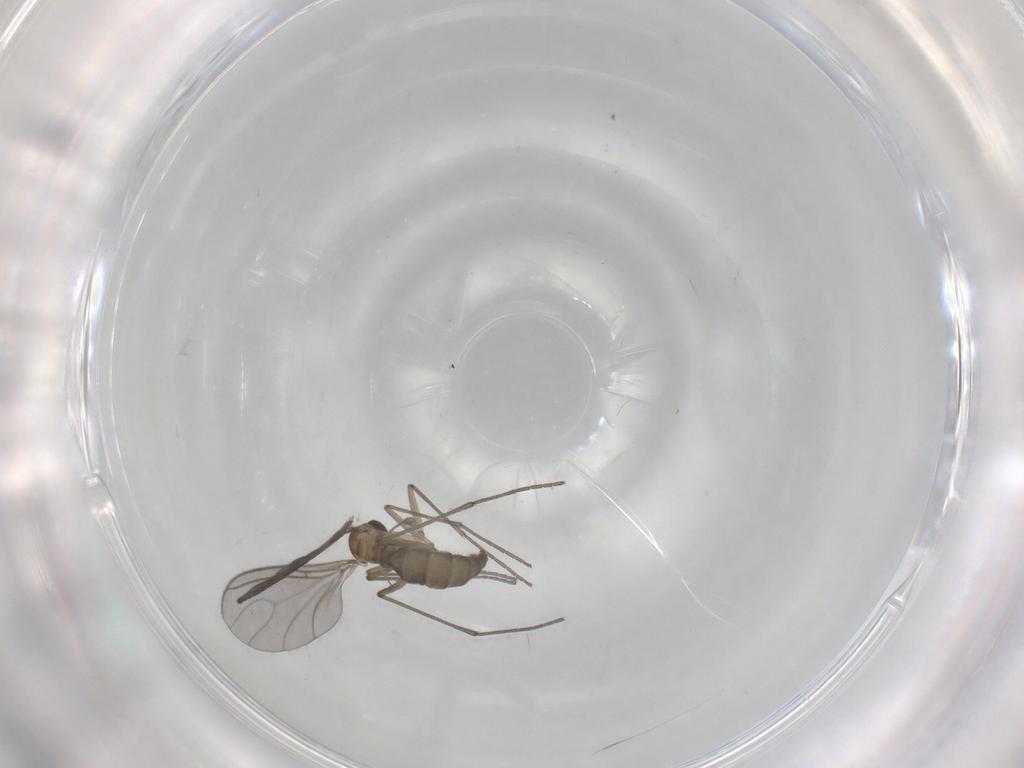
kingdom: Animalia
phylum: Arthropoda
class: Insecta
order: Diptera
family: Sciaridae
